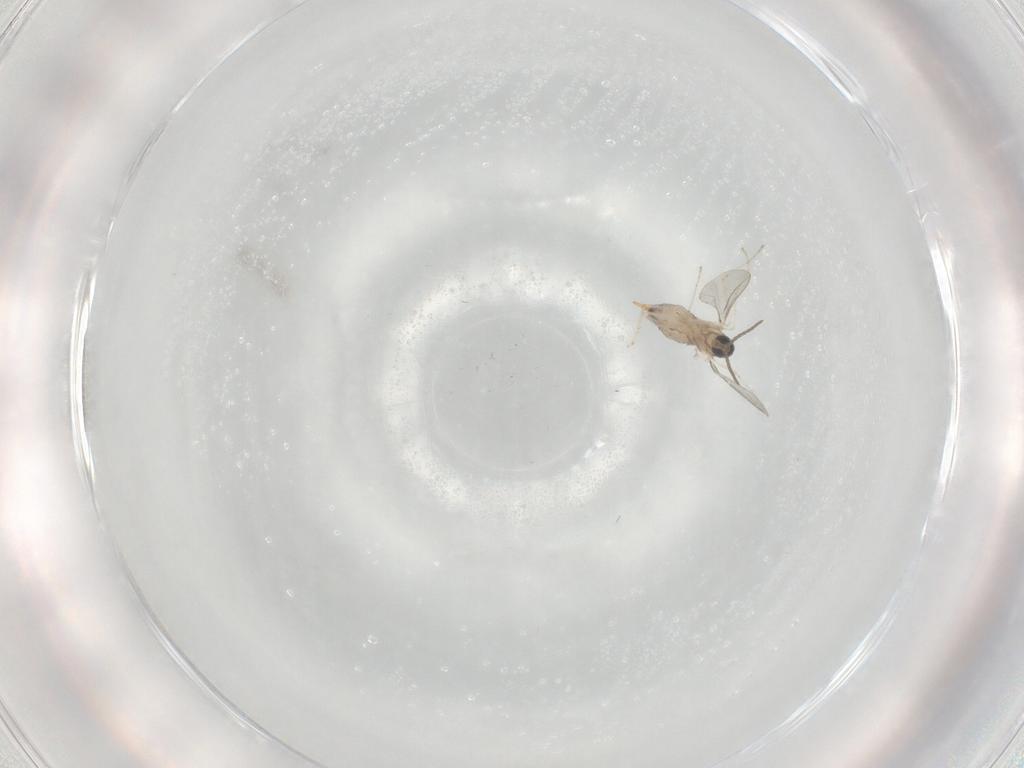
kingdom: Animalia
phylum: Arthropoda
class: Insecta
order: Diptera
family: Cecidomyiidae
